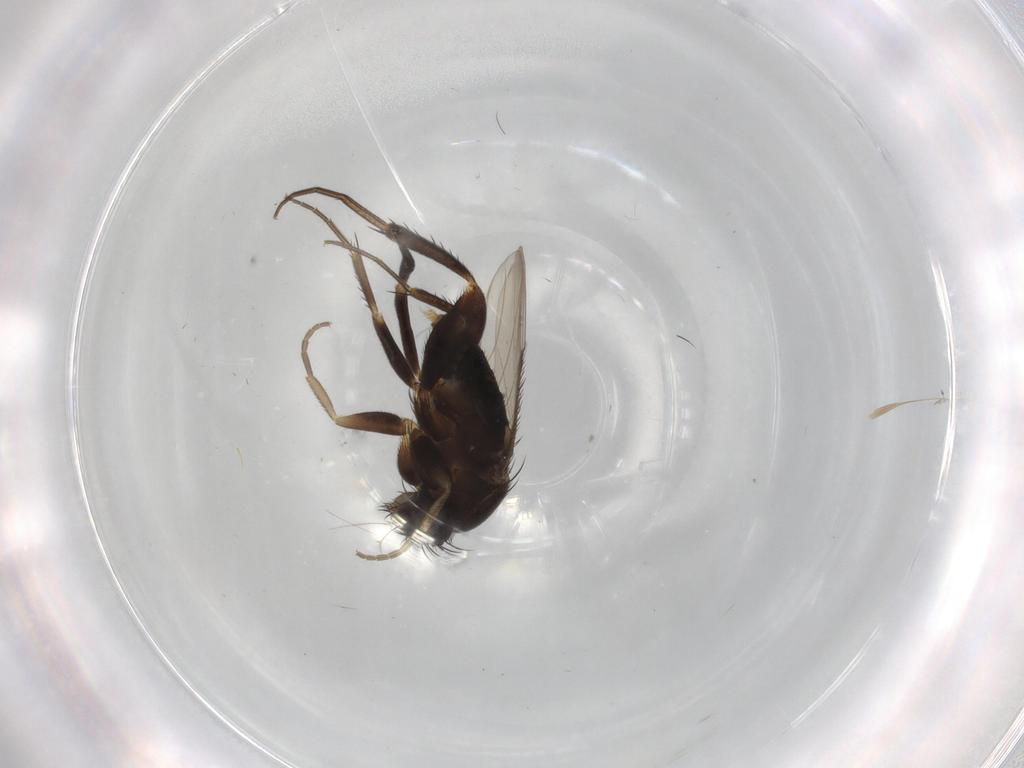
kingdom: Animalia
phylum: Arthropoda
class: Insecta
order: Diptera
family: Phoridae
